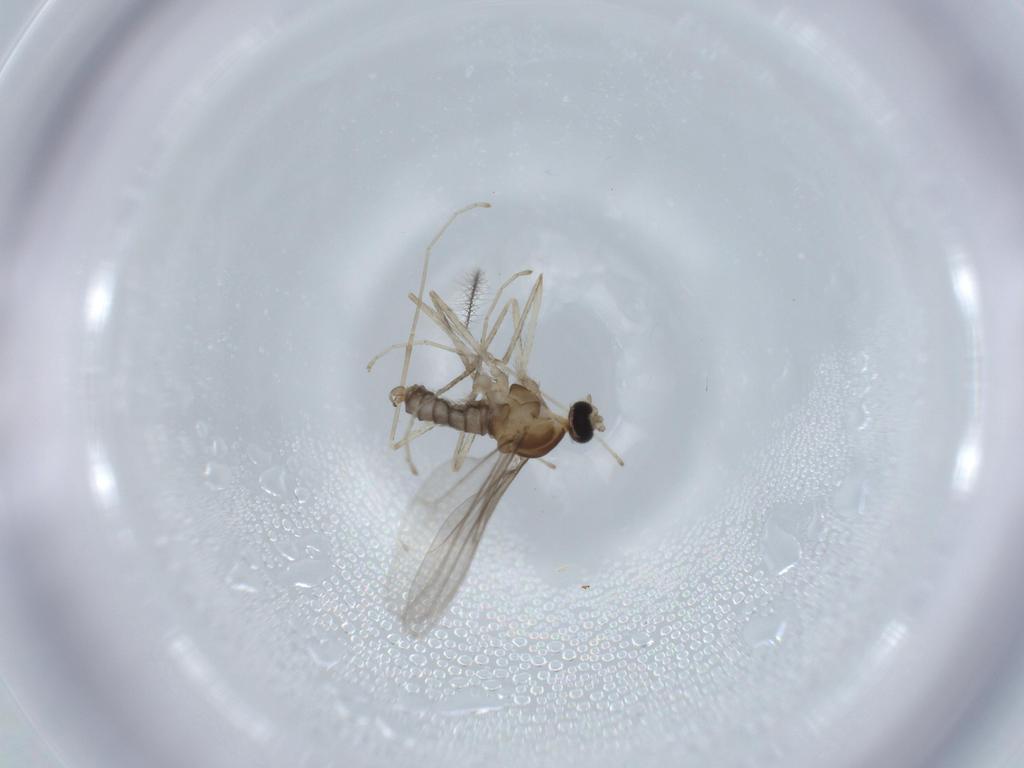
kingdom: Animalia
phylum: Arthropoda
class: Insecta
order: Diptera
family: Cecidomyiidae
